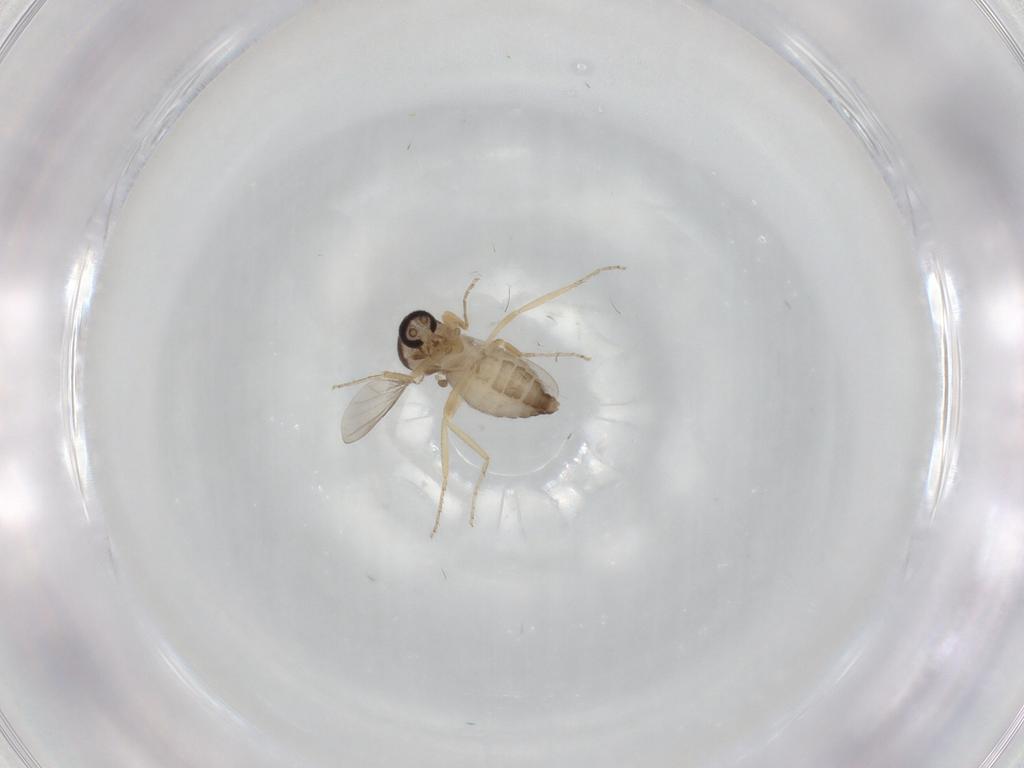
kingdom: Animalia
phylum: Arthropoda
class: Insecta
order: Diptera
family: Ceratopogonidae
